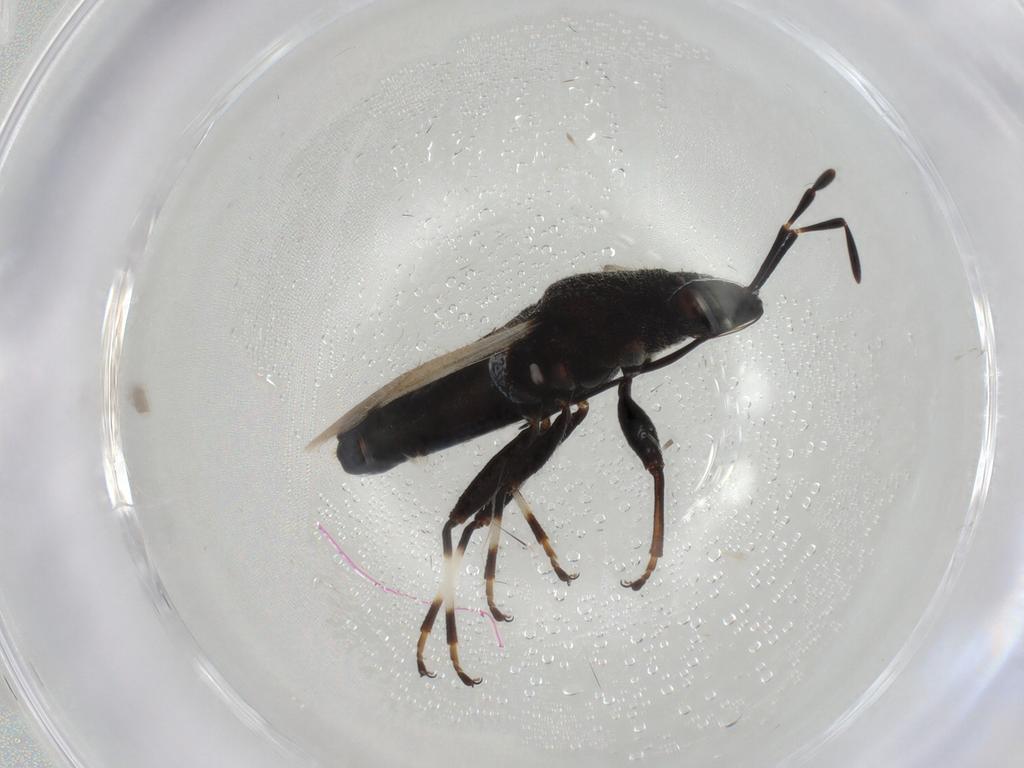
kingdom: Animalia
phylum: Arthropoda
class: Insecta
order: Hemiptera
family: Oxycarenidae
